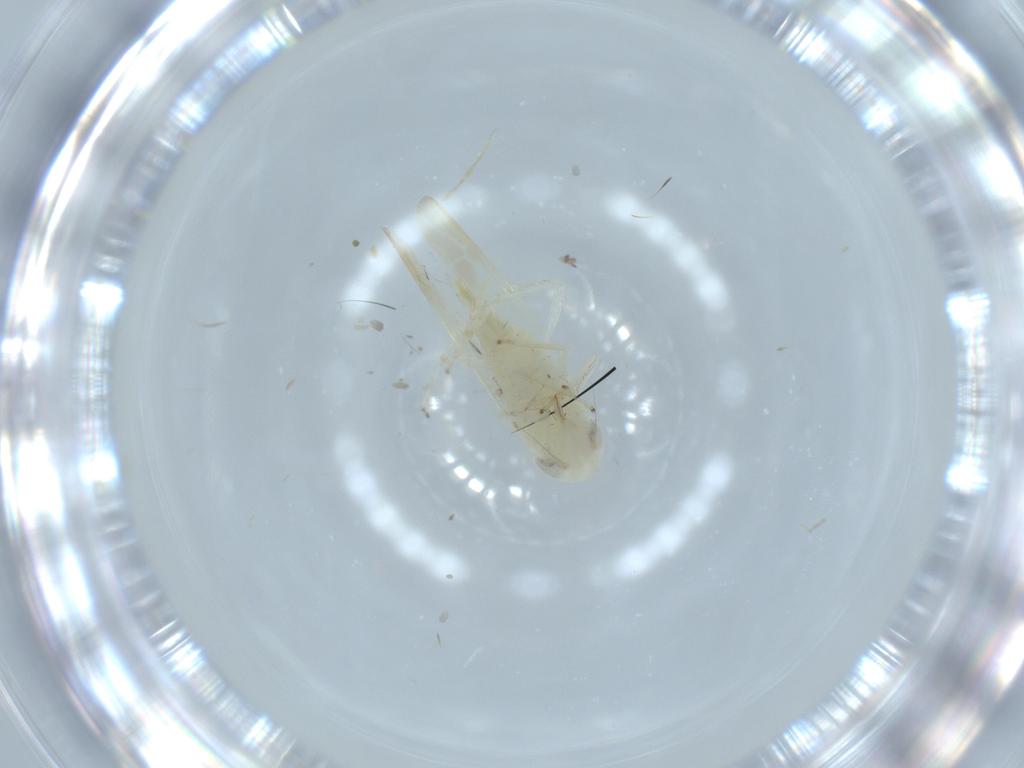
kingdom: Animalia
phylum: Arthropoda
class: Insecta
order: Hemiptera
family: Cicadellidae
